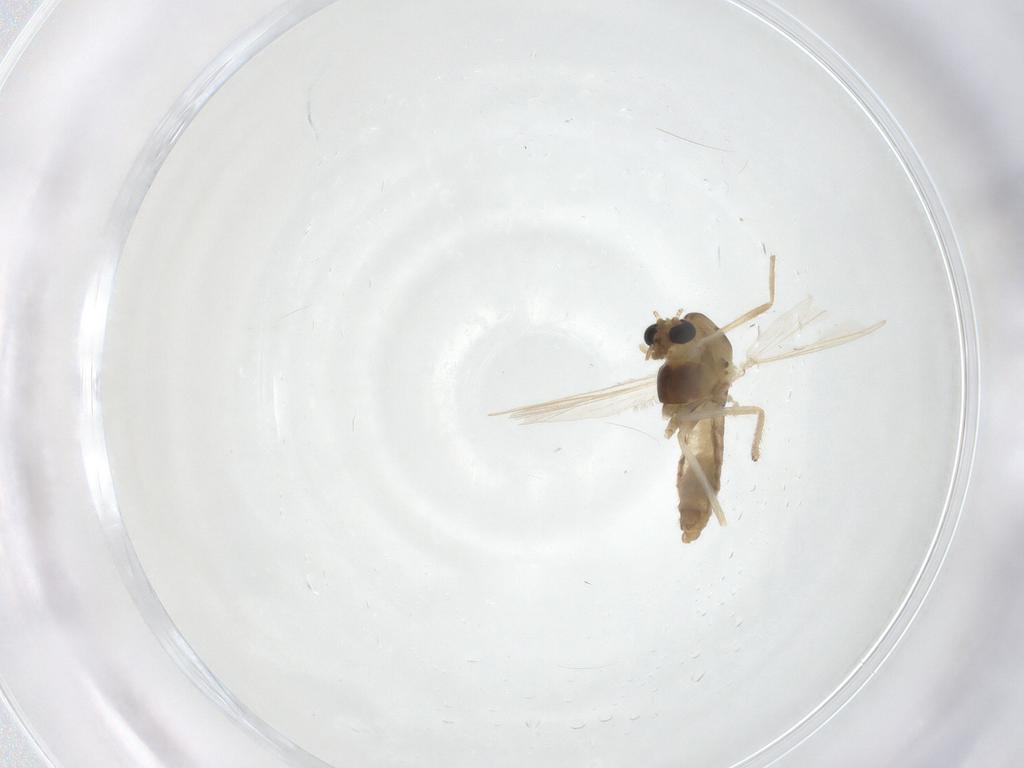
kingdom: Animalia
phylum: Arthropoda
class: Insecta
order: Diptera
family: Chironomidae
